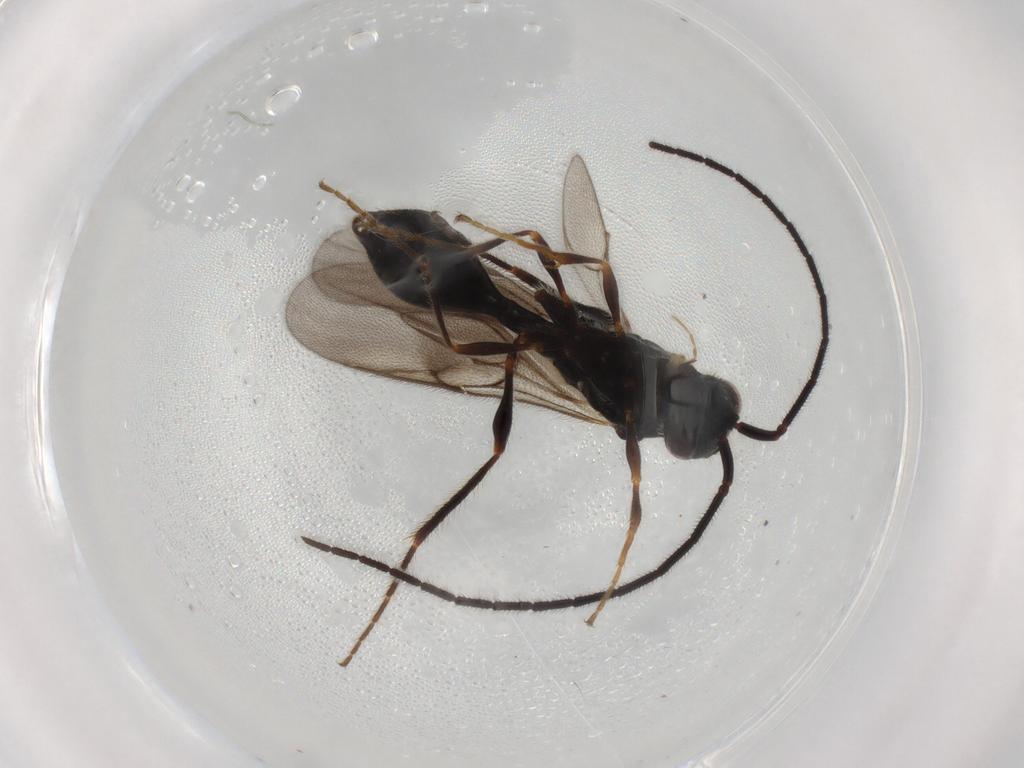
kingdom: Animalia
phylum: Arthropoda
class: Insecta
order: Hymenoptera
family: Diapriidae
